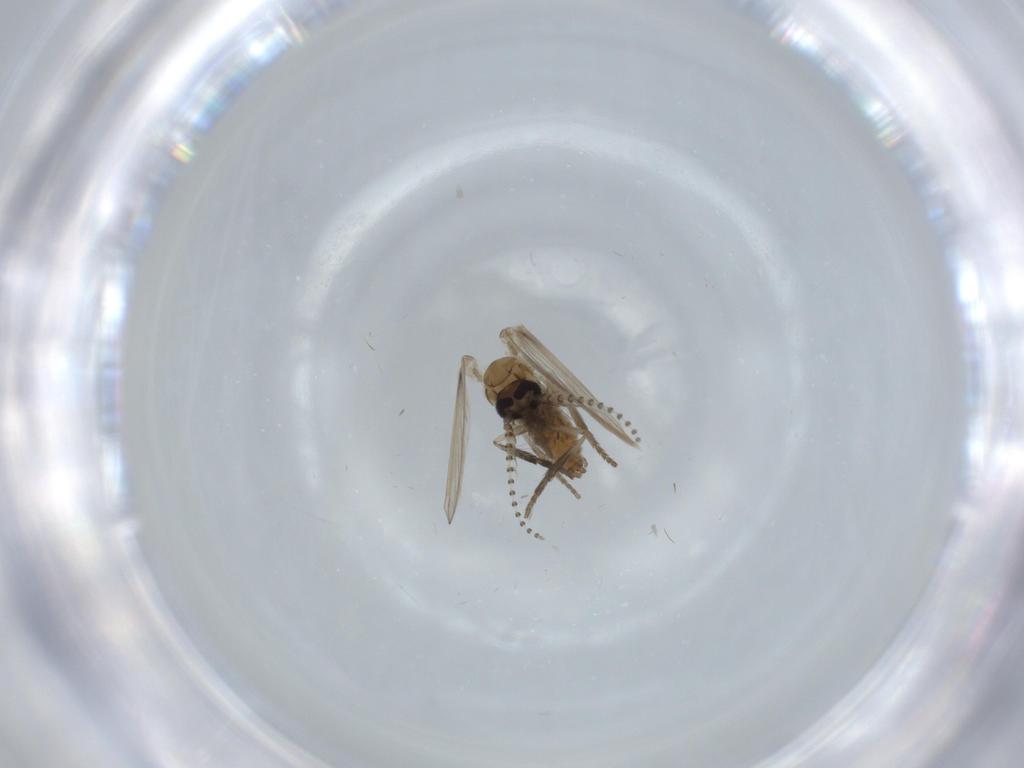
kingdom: Animalia
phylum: Arthropoda
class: Insecta
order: Diptera
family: Psychodidae
